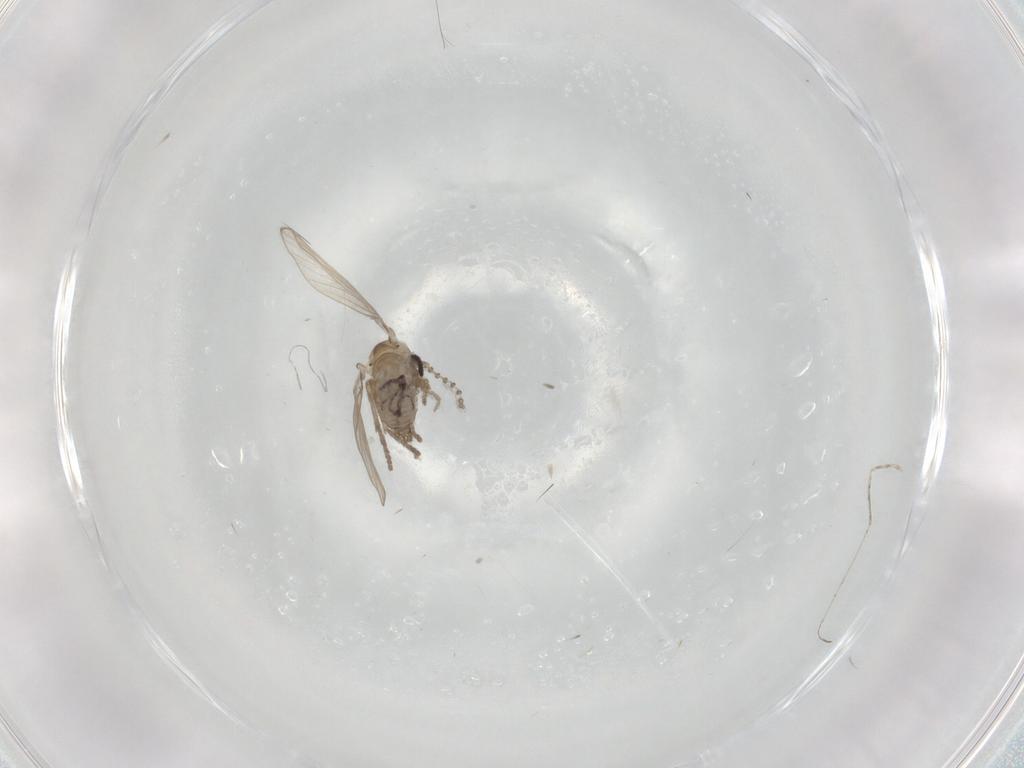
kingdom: Animalia
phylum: Arthropoda
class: Insecta
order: Diptera
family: Psychodidae
